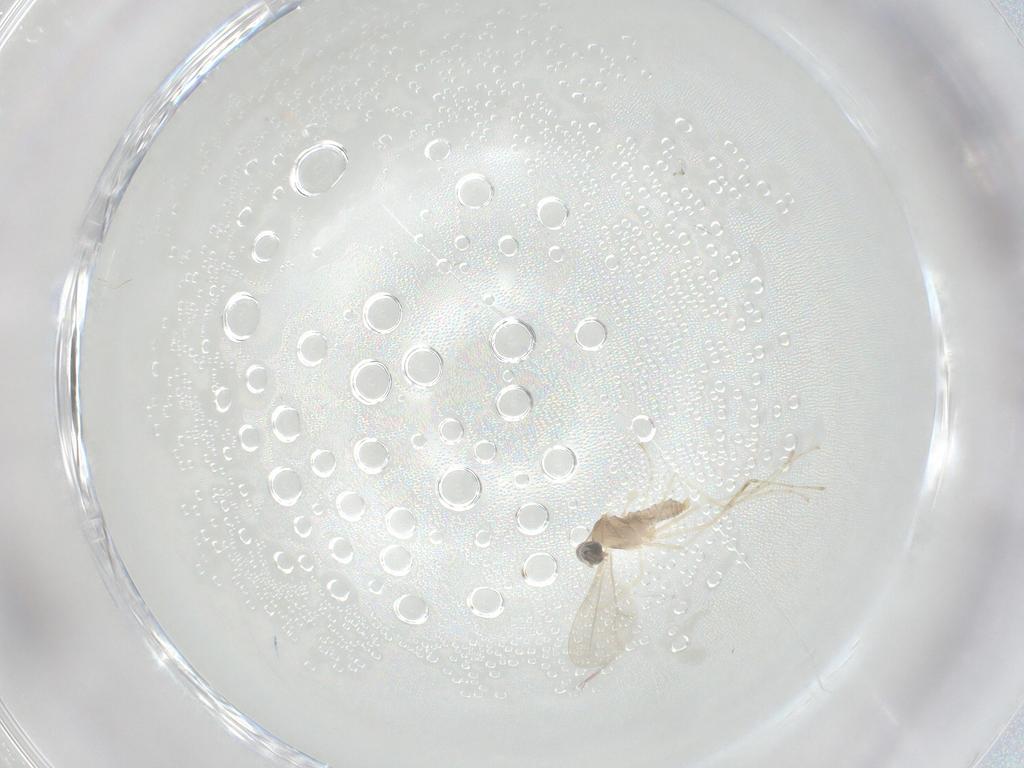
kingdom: Animalia
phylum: Arthropoda
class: Insecta
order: Diptera
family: Cecidomyiidae
